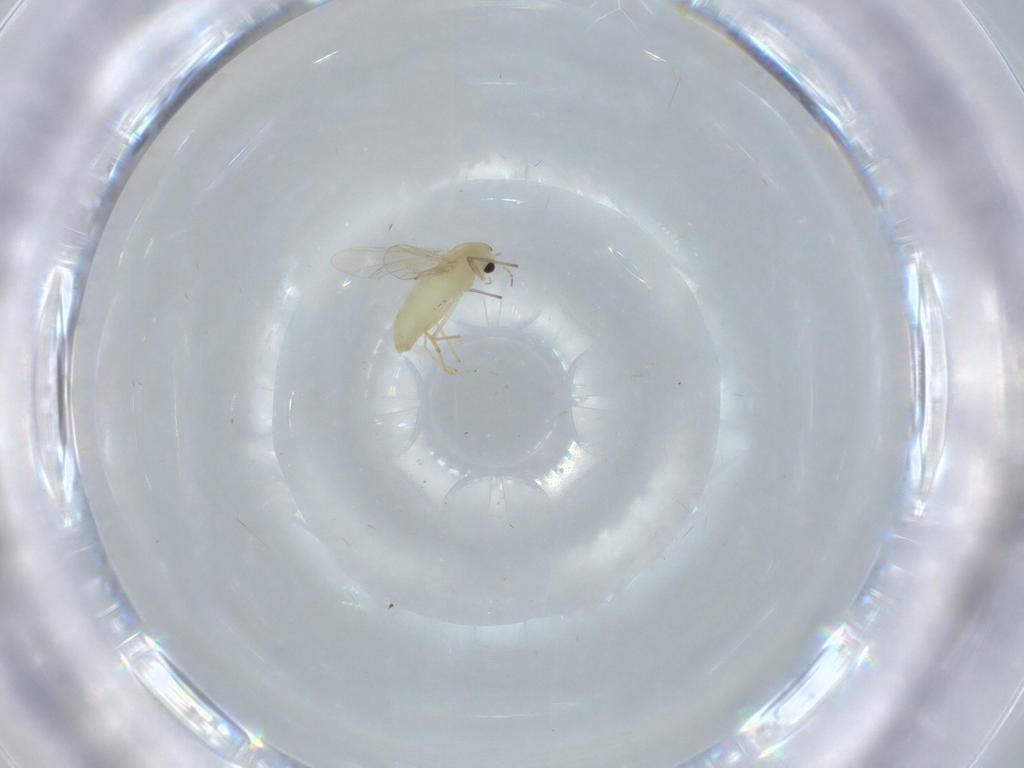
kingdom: Animalia
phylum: Arthropoda
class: Insecta
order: Diptera
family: Chironomidae
